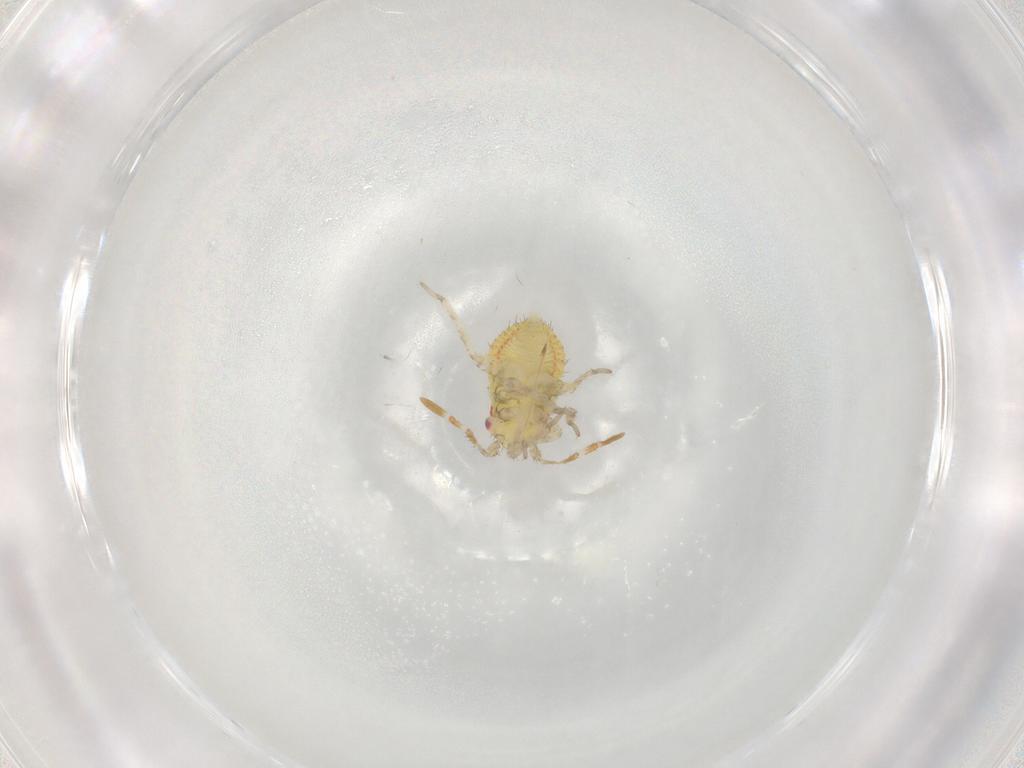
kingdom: Animalia
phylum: Arthropoda
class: Insecta
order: Hemiptera
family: Miridae
